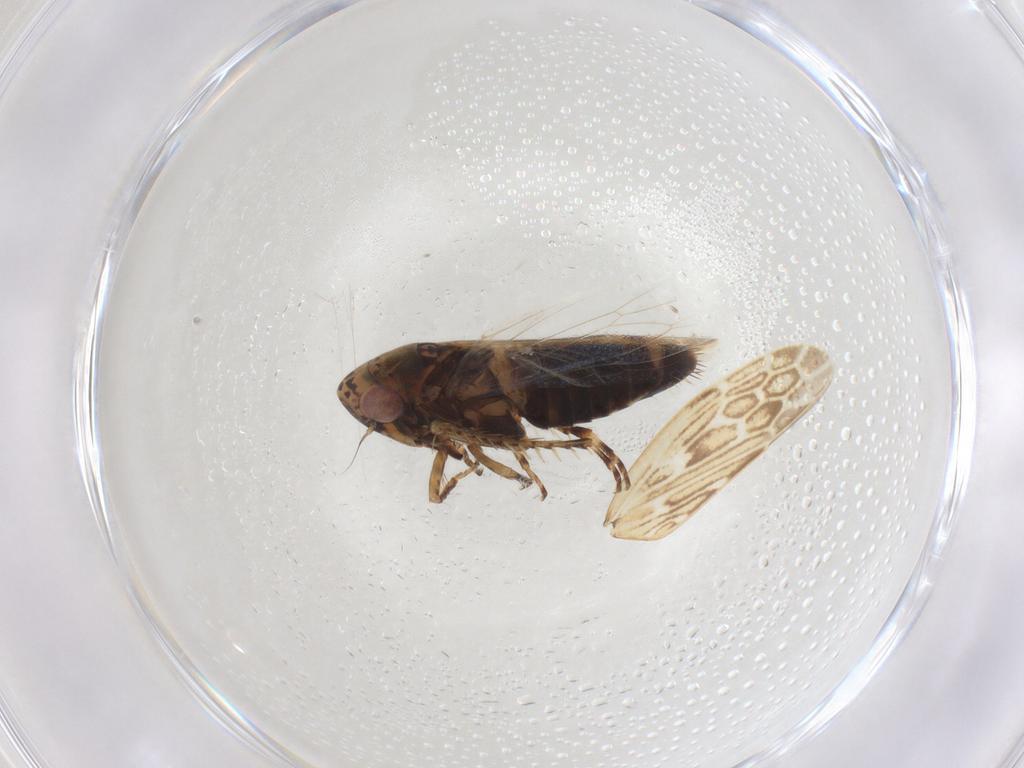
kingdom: Animalia
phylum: Arthropoda
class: Insecta
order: Hemiptera
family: Cicadellidae
